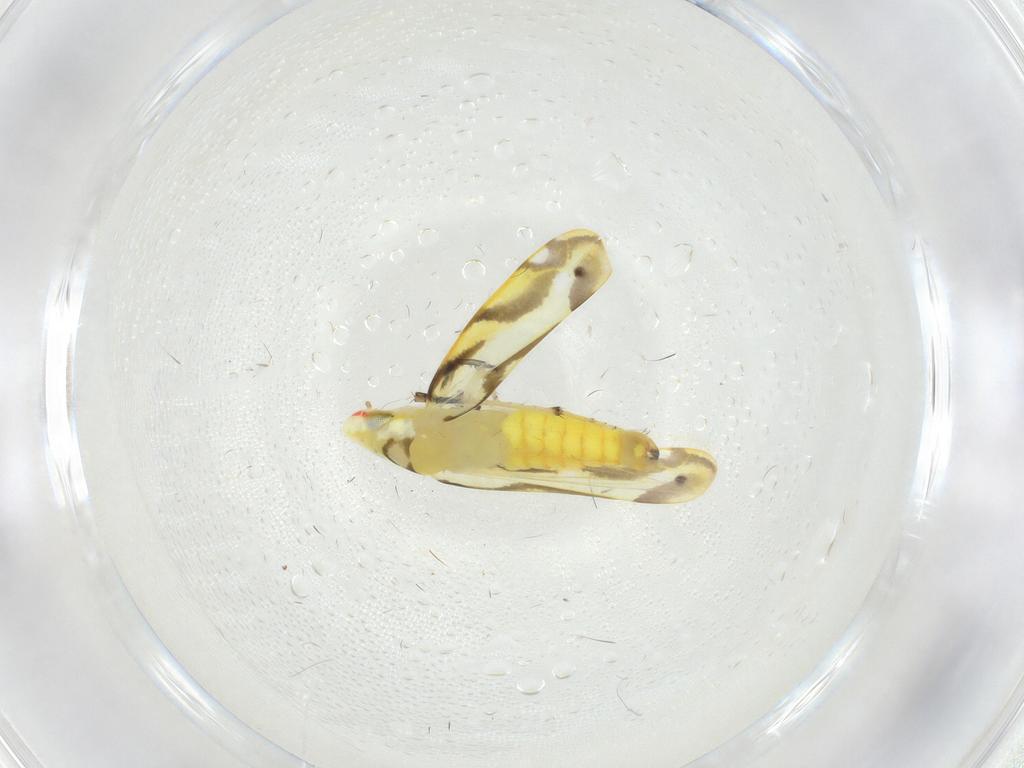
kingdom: Animalia
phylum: Arthropoda
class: Insecta
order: Hemiptera
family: Cicadellidae
